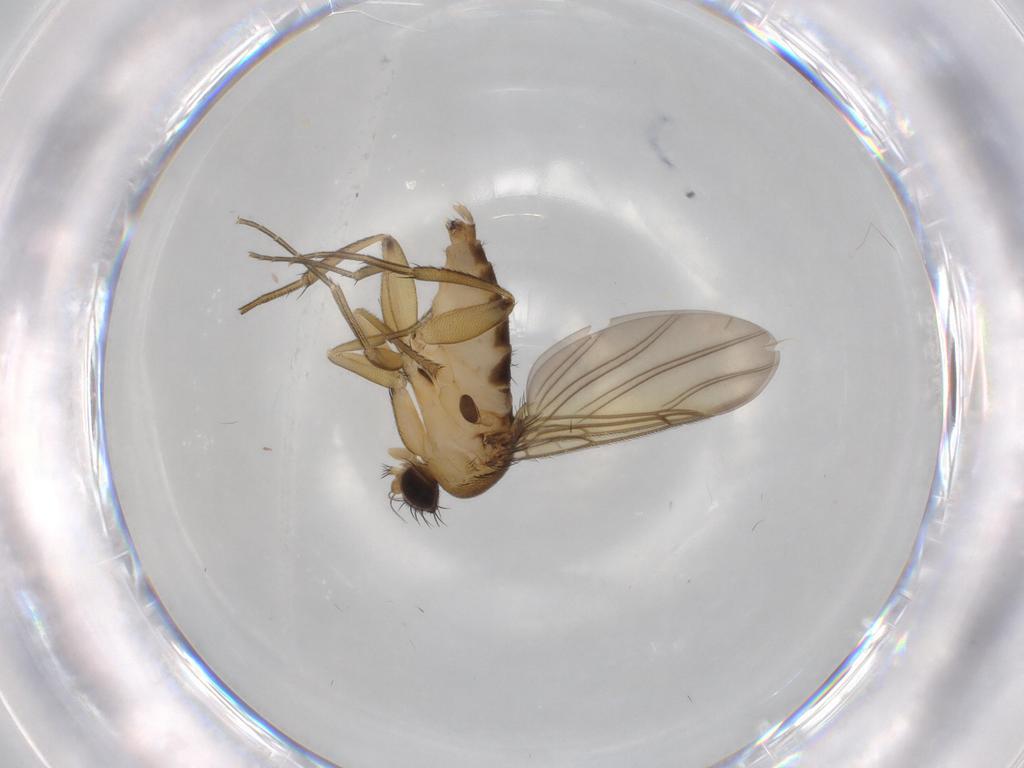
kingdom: Animalia
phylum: Arthropoda
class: Insecta
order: Diptera
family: Phoridae
